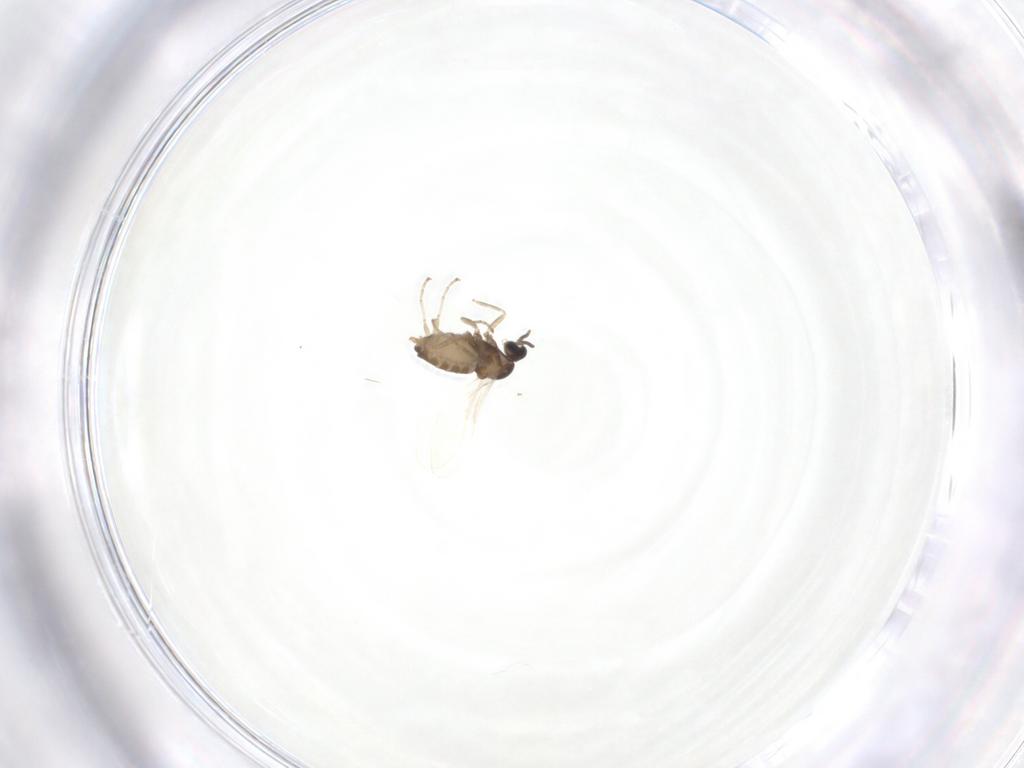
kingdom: Animalia
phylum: Arthropoda
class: Insecta
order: Diptera
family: Cecidomyiidae
